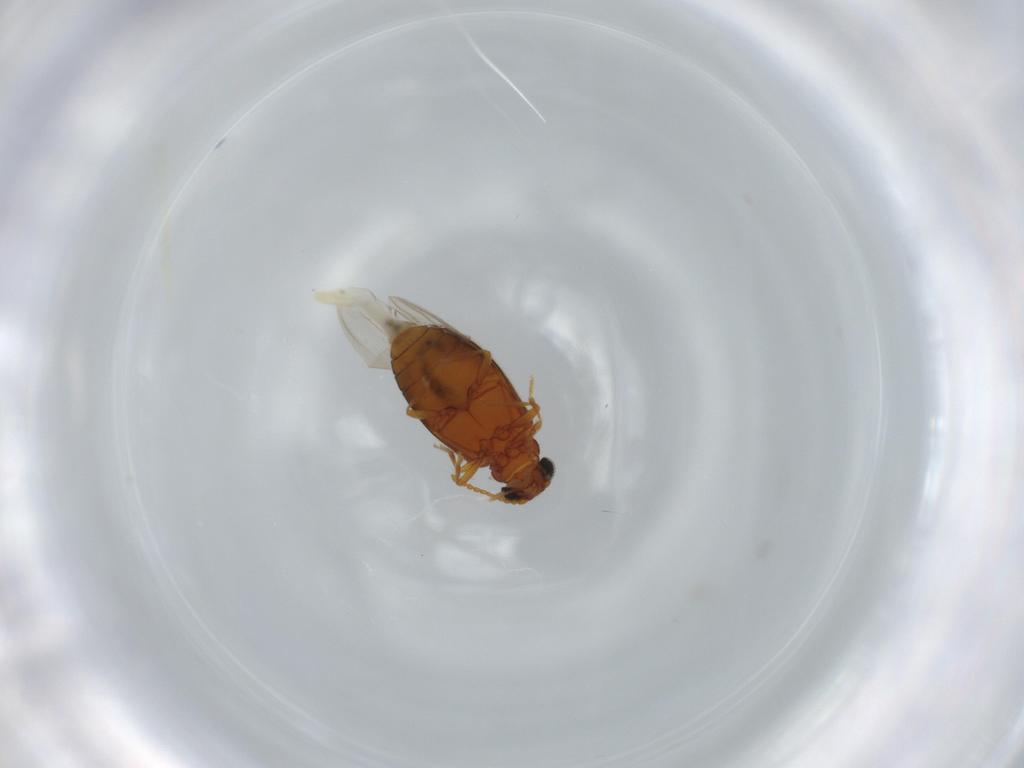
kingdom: Animalia
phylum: Arthropoda
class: Insecta
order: Coleoptera
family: Aderidae
